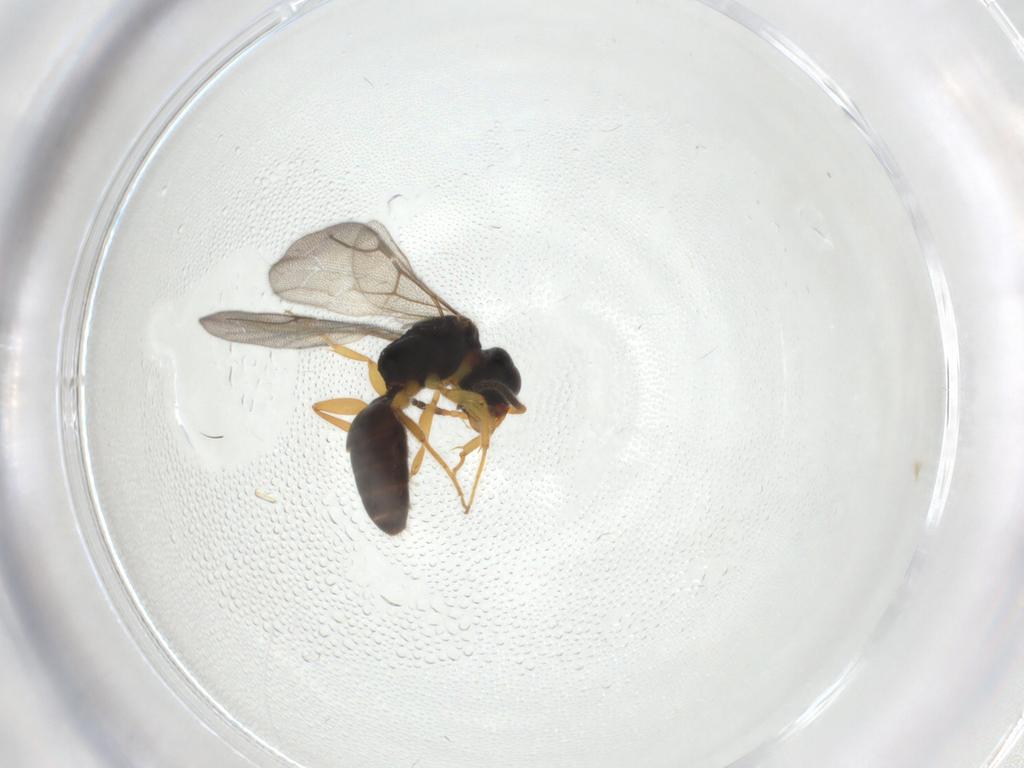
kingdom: Animalia
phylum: Arthropoda
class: Insecta
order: Hymenoptera
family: Bethylidae
